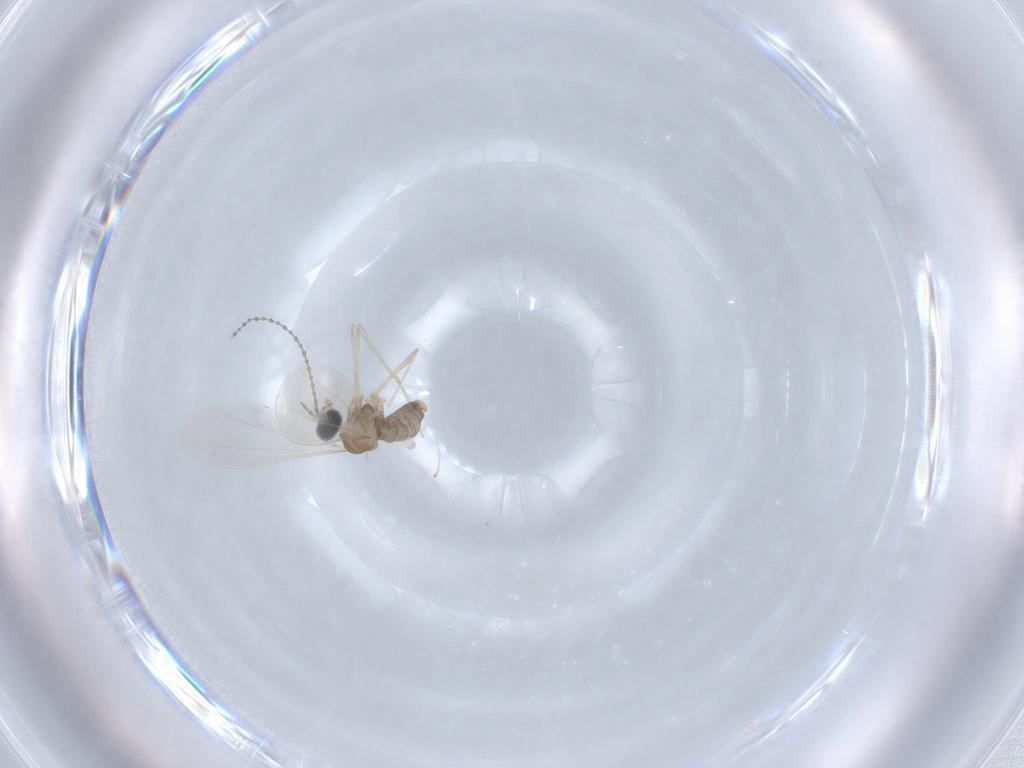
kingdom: Animalia
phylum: Arthropoda
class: Insecta
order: Diptera
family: Cecidomyiidae
